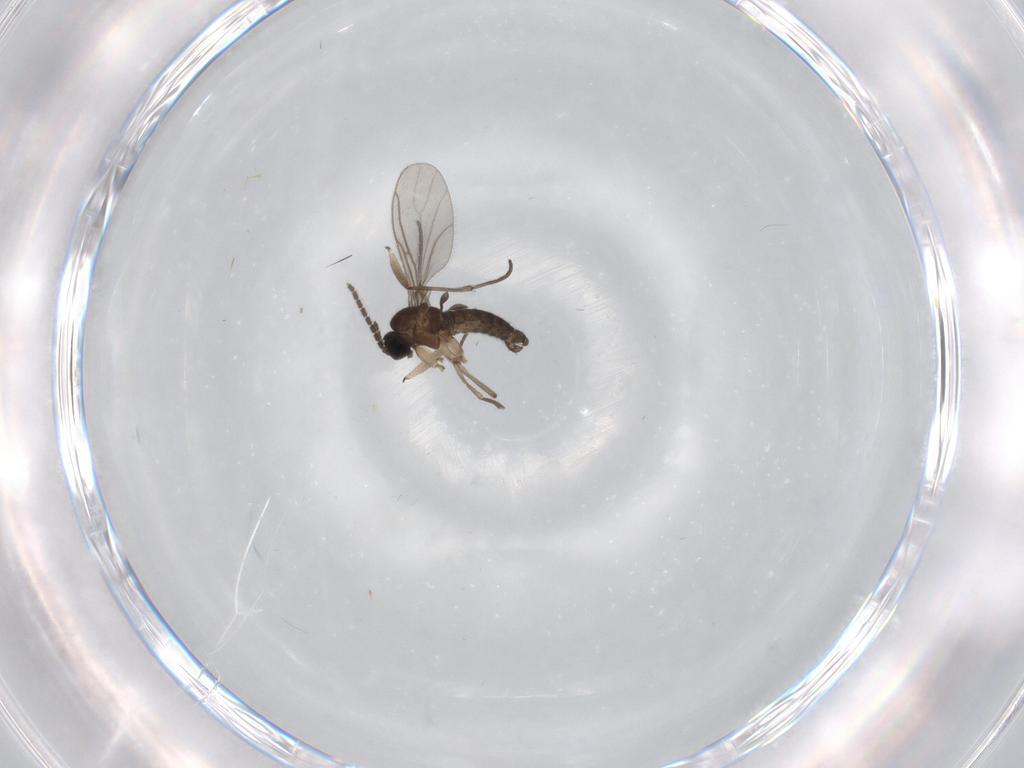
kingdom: Animalia
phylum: Arthropoda
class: Insecta
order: Diptera
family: Sciaridae
